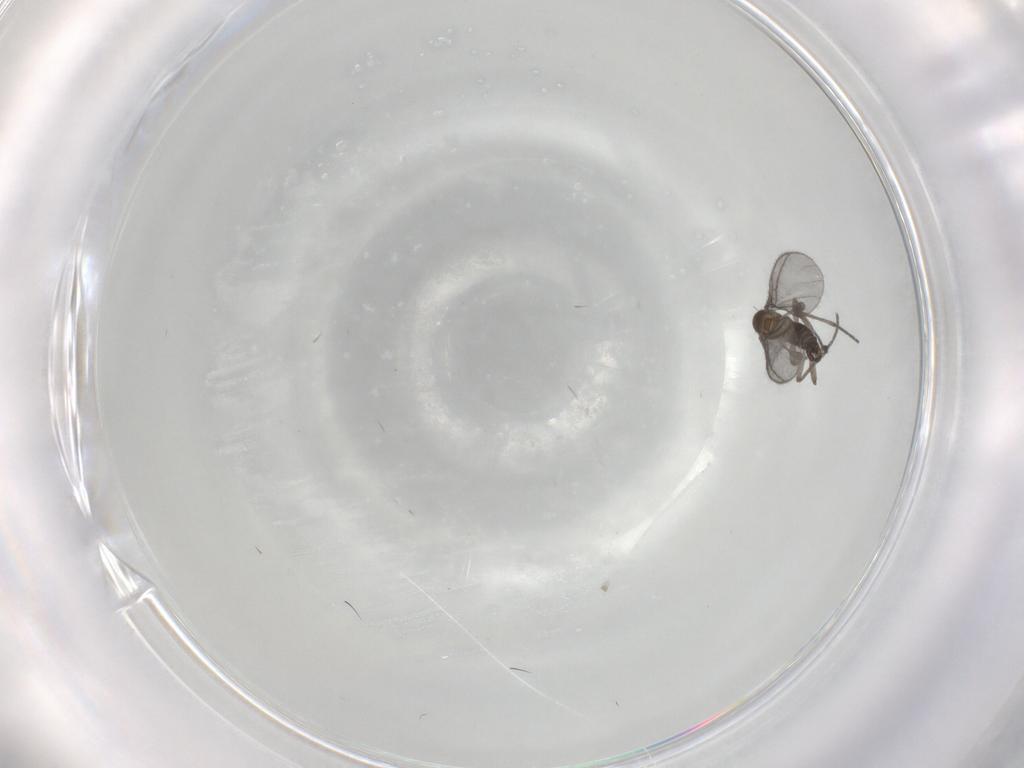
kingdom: Animalia
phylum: Arthropoda
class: Insecta
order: Diptera
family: Sciaridae
